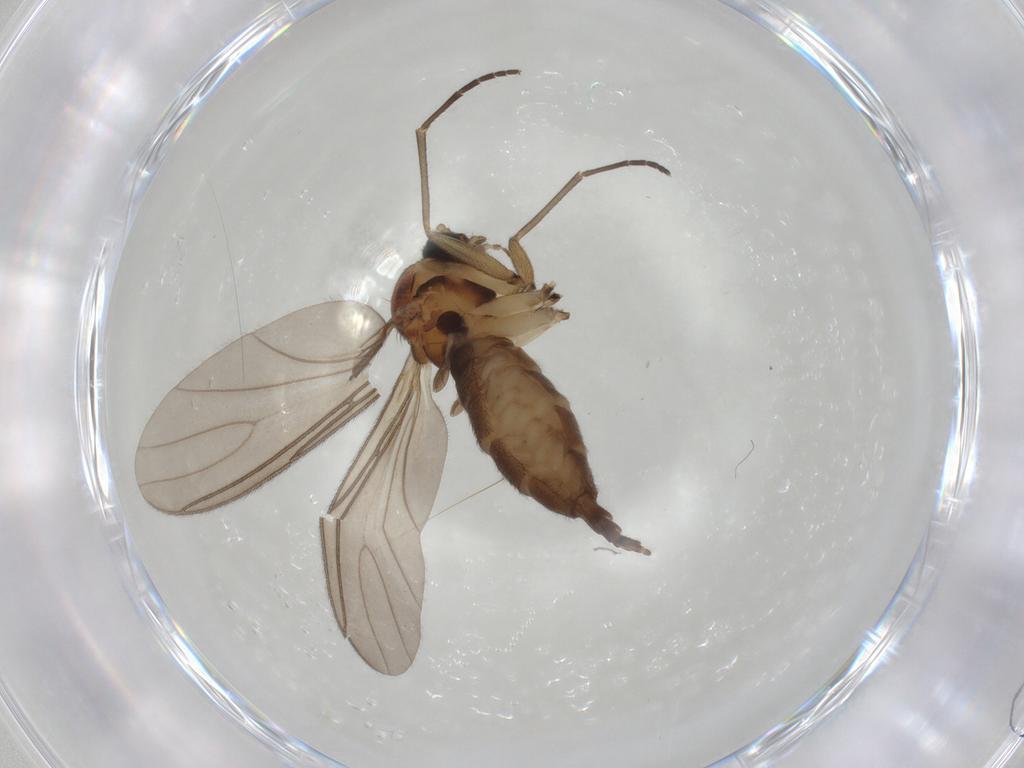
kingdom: Animalia
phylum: Arthropoda
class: Insecta
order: Diptera
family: Sciaridae
